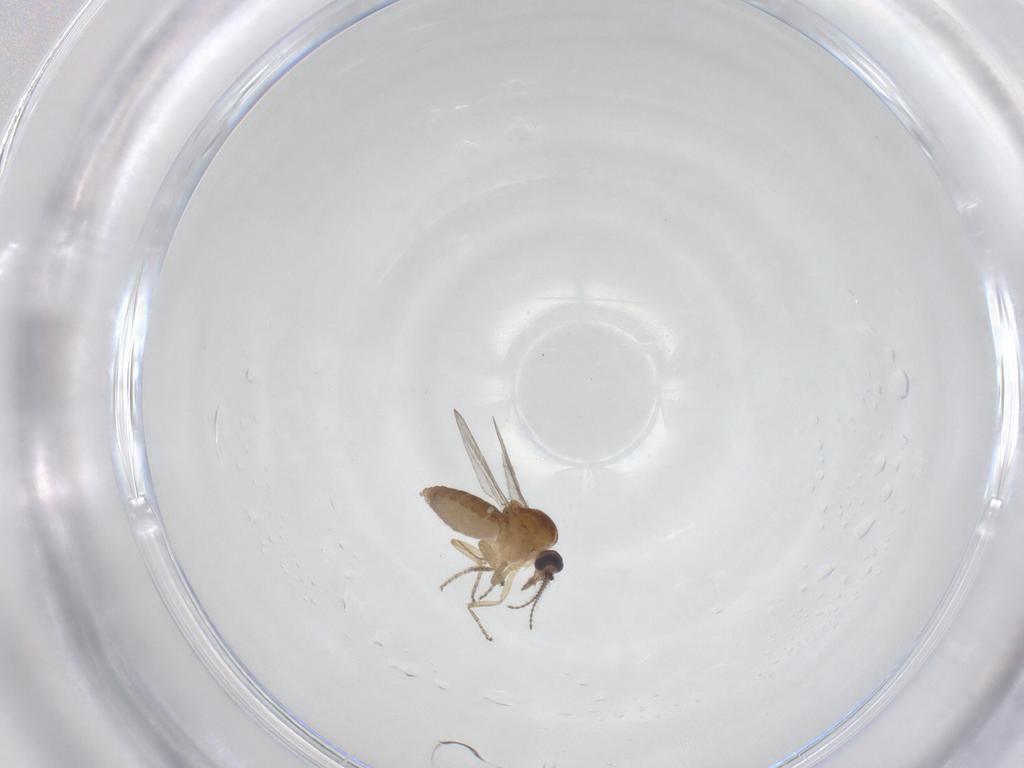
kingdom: Animalia
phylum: Arthropoda
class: Insecta
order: Diptera
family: Ceratopogonidae
